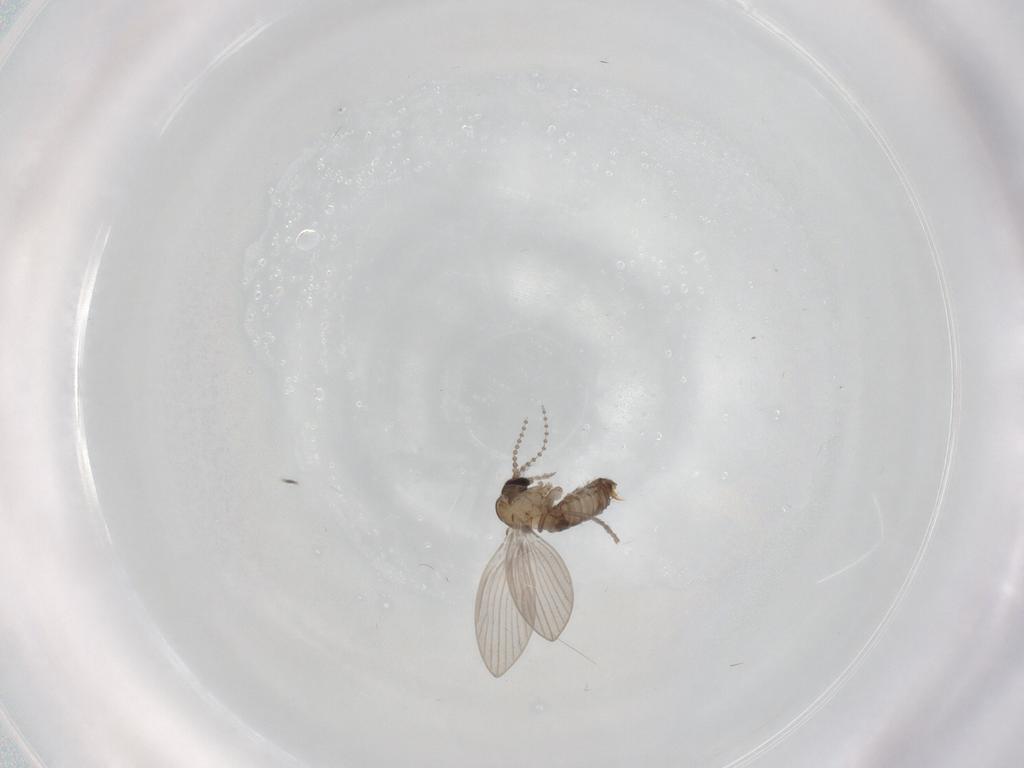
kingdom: Animalia
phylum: Arthropoda
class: Insecta
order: Diptera
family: Psychodidae
